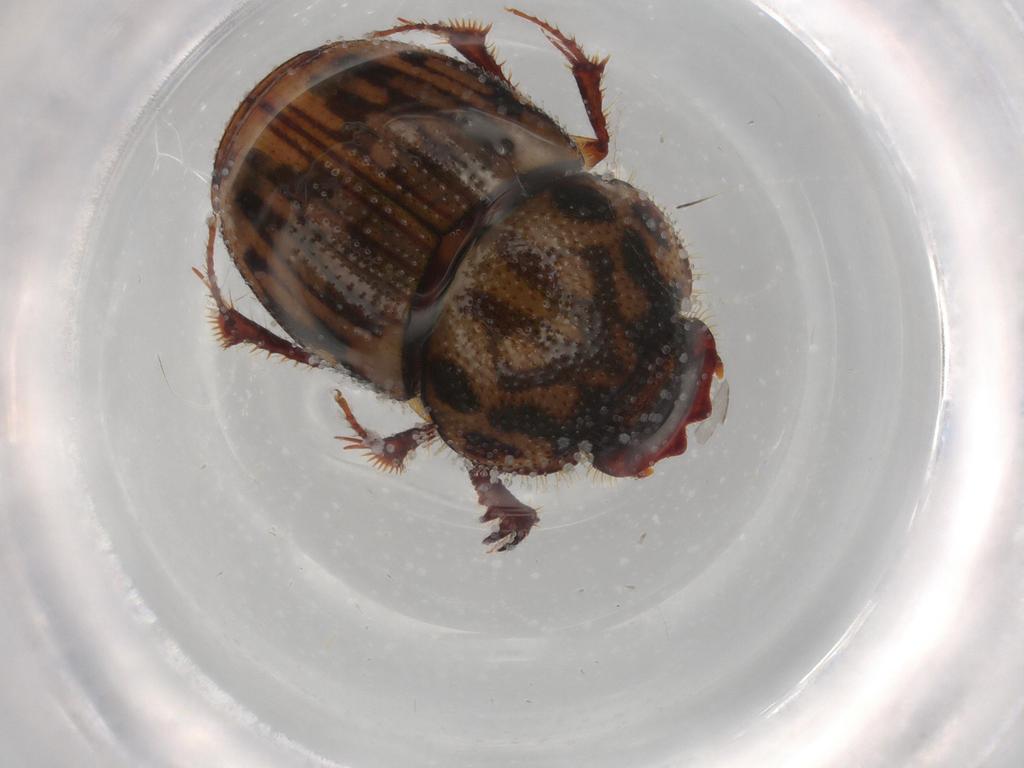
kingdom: Animalia
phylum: Arthropoda
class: Insecta
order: Coleoptera
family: Scarabaeidae
